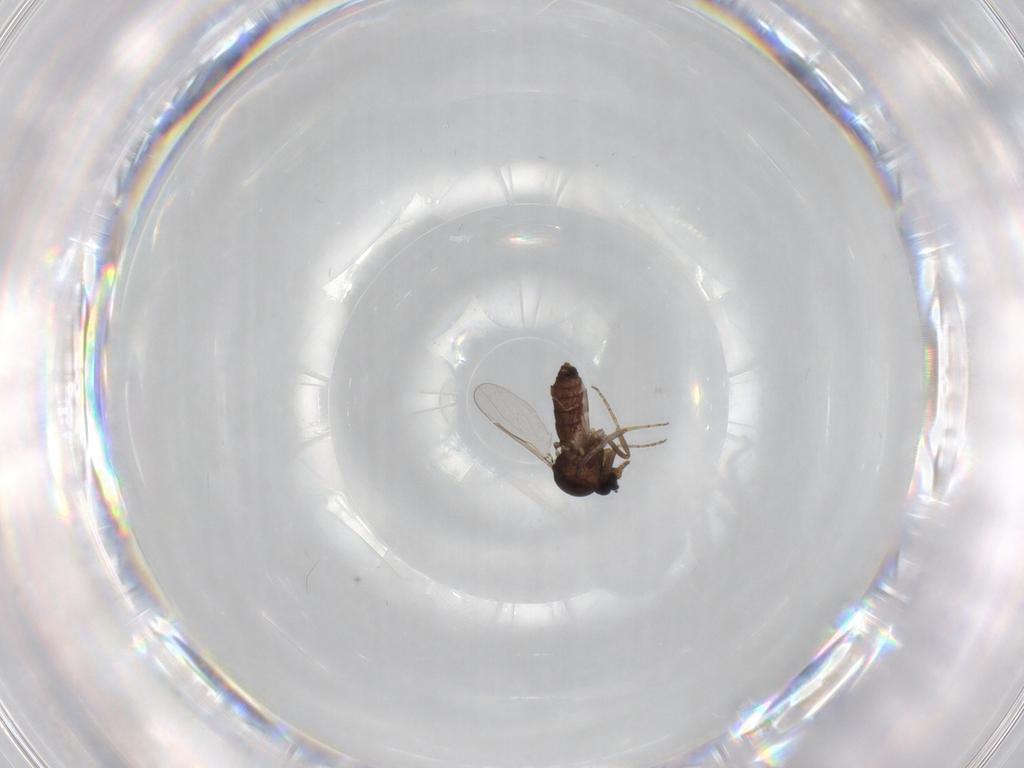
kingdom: Animalia
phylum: Arthropoda
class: Insecta
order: Diptera
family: Ceratopogonidae
